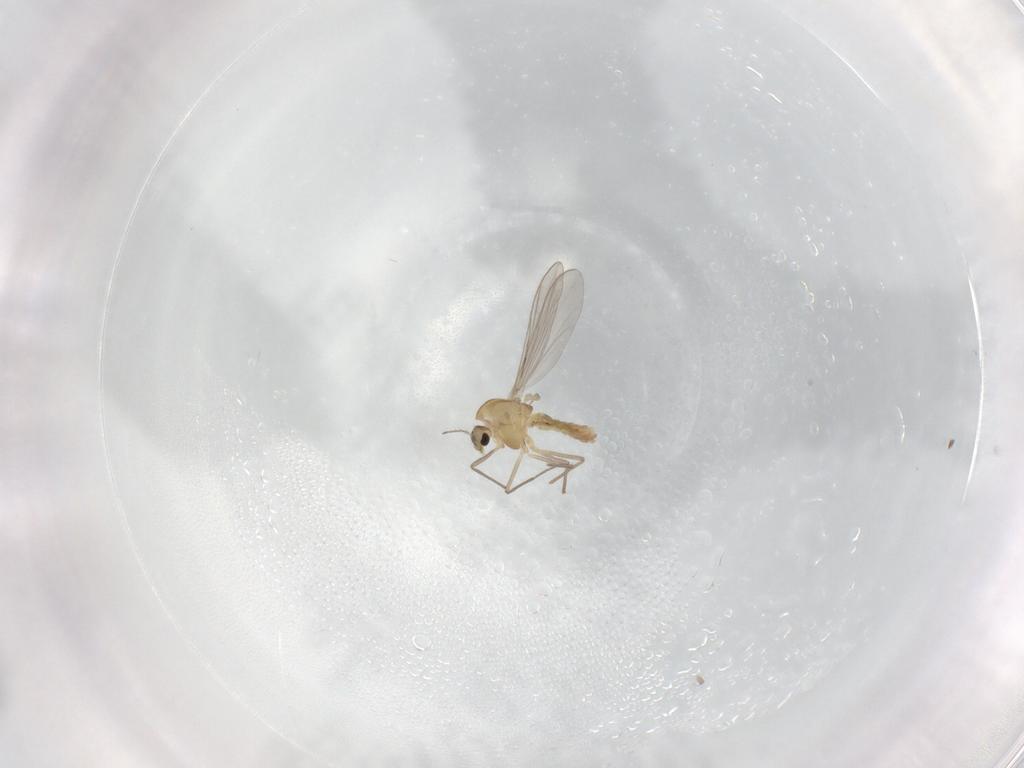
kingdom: Animalia
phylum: Arthropoda
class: Insecta
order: Diptera
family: Chironomidae
